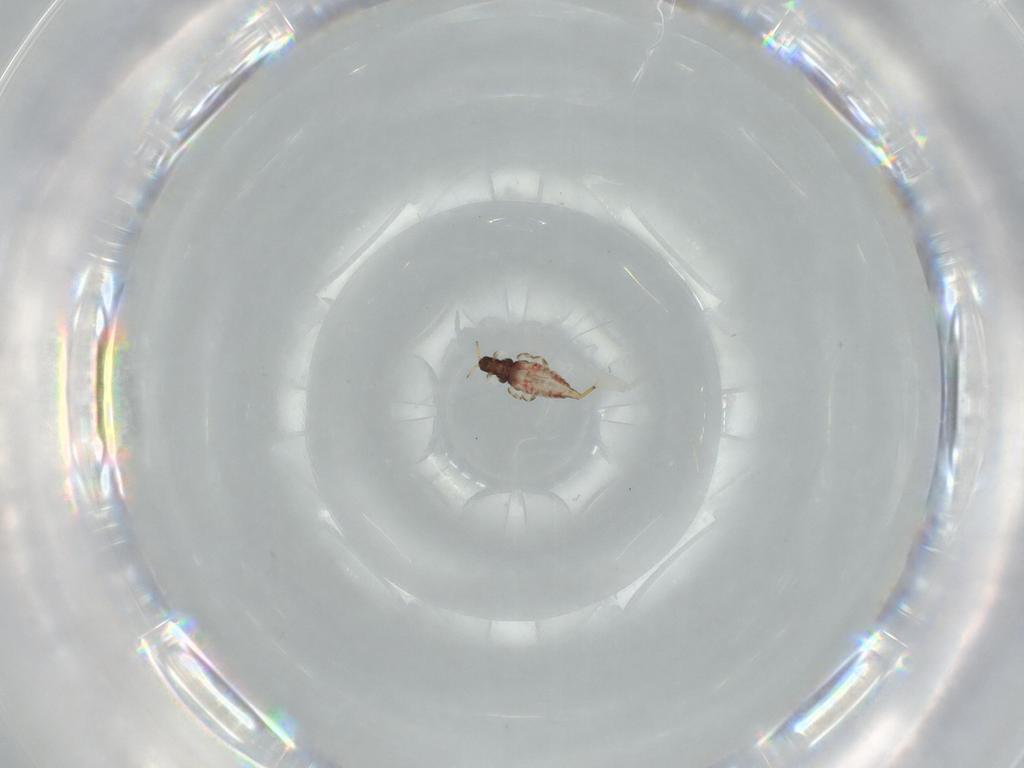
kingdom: Animalia
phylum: Arthropoda
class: Insecta
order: Thysanoptera
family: Phlaeothripidae
